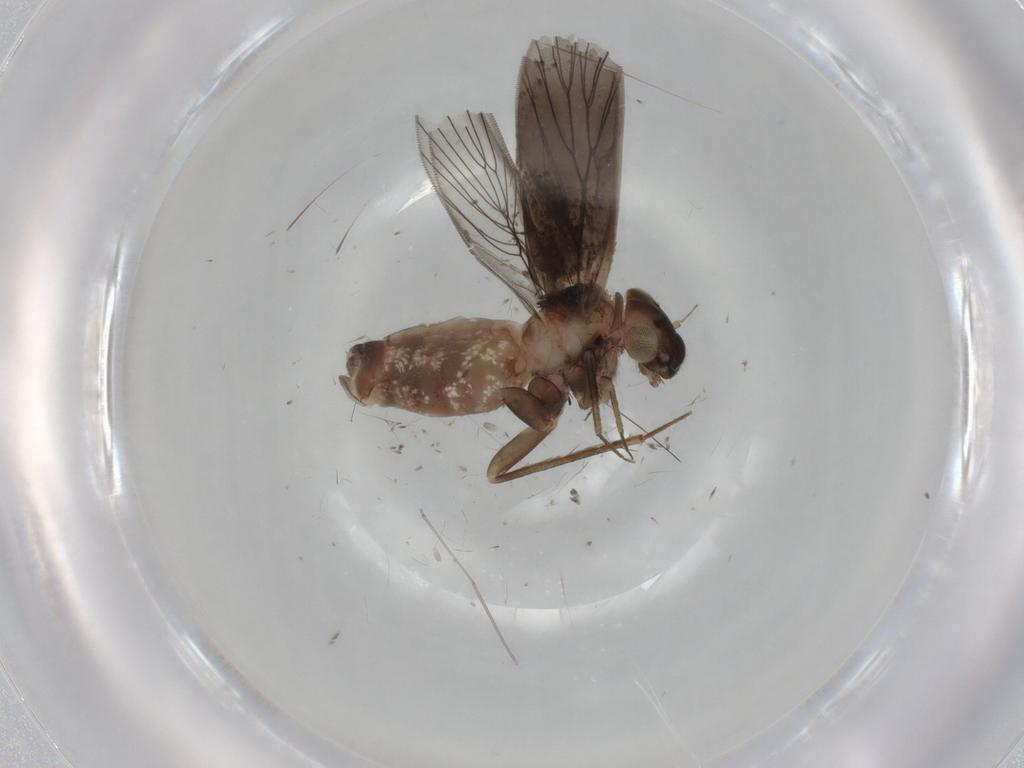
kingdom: Animalia
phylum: Arthropoda
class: Insecta
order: Psocodea
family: Lepidopsocidae
